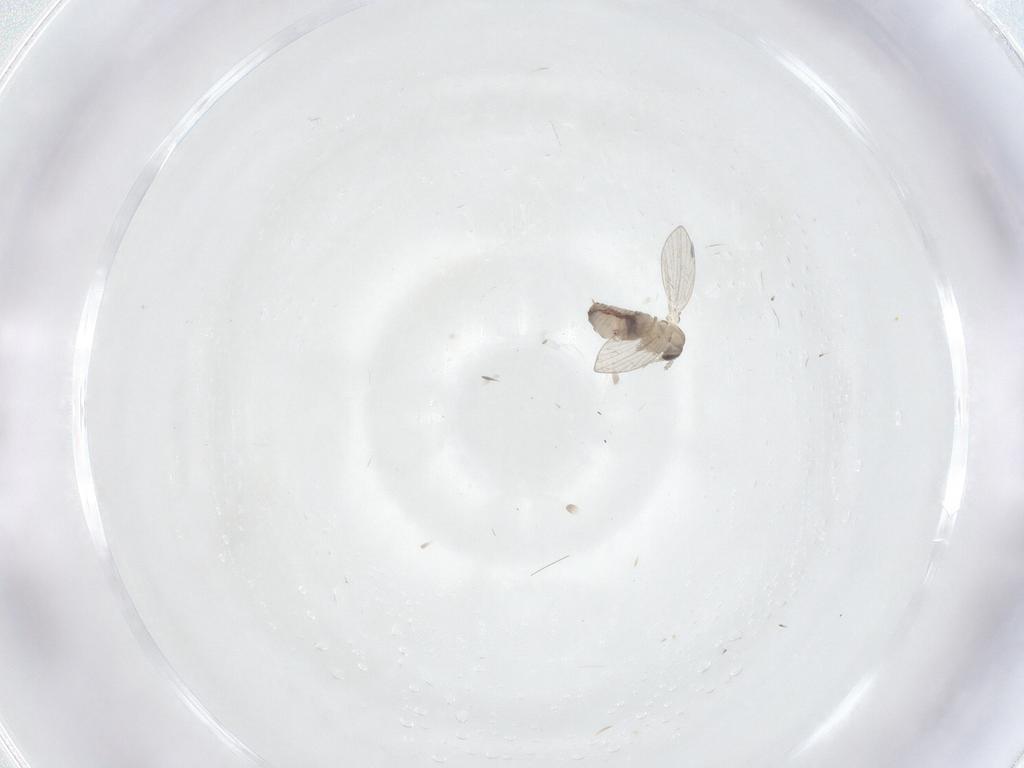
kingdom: Animalia
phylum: Arthropoda
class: Insecta
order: Diptera
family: Psychodidae
